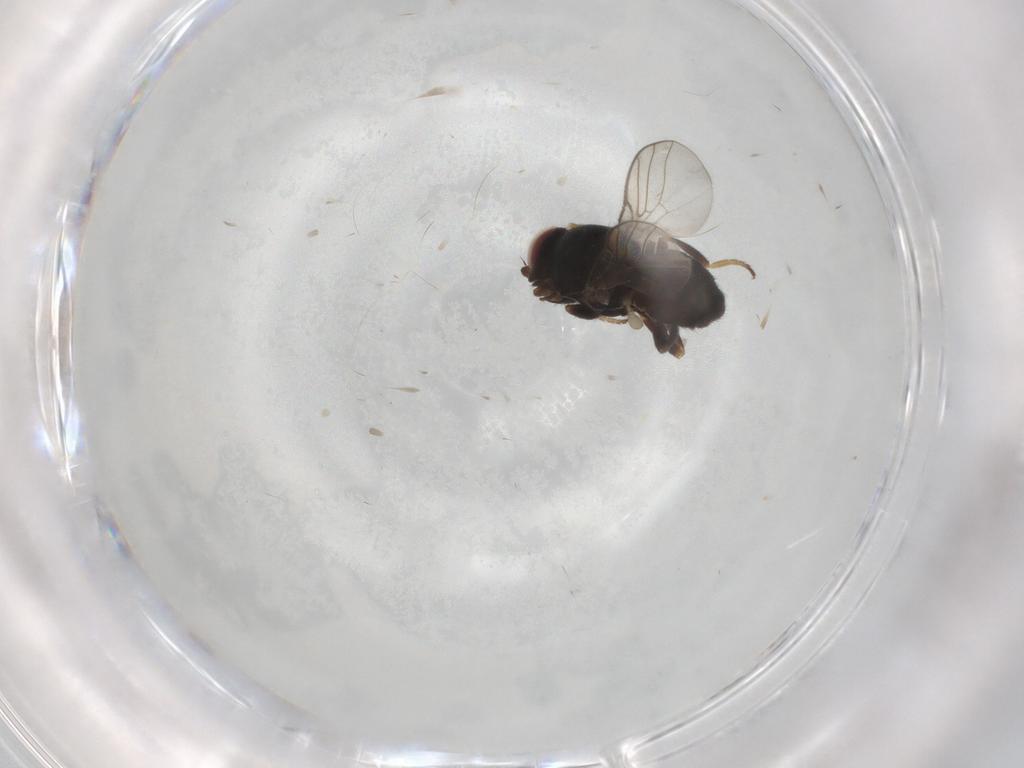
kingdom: Animalia
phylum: Arthropoda
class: Insecta
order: Diptera
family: Chloropidae
